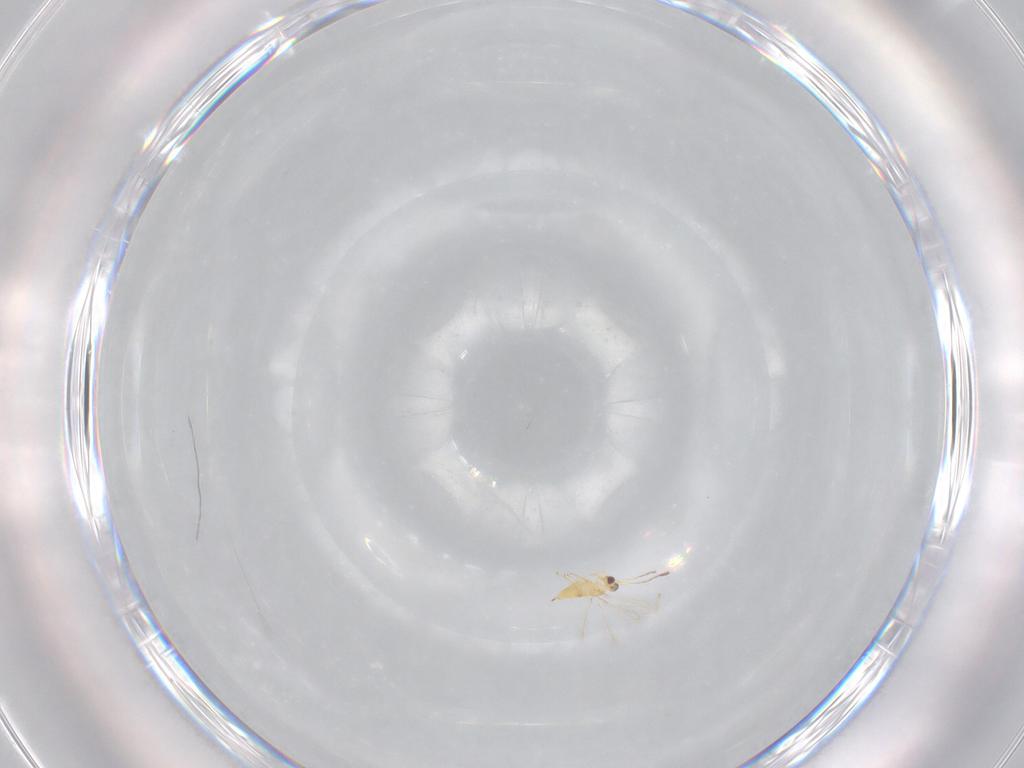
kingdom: Animalia
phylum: Arthropoda
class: Insecta
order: Hymenoptera
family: Mymaridae
